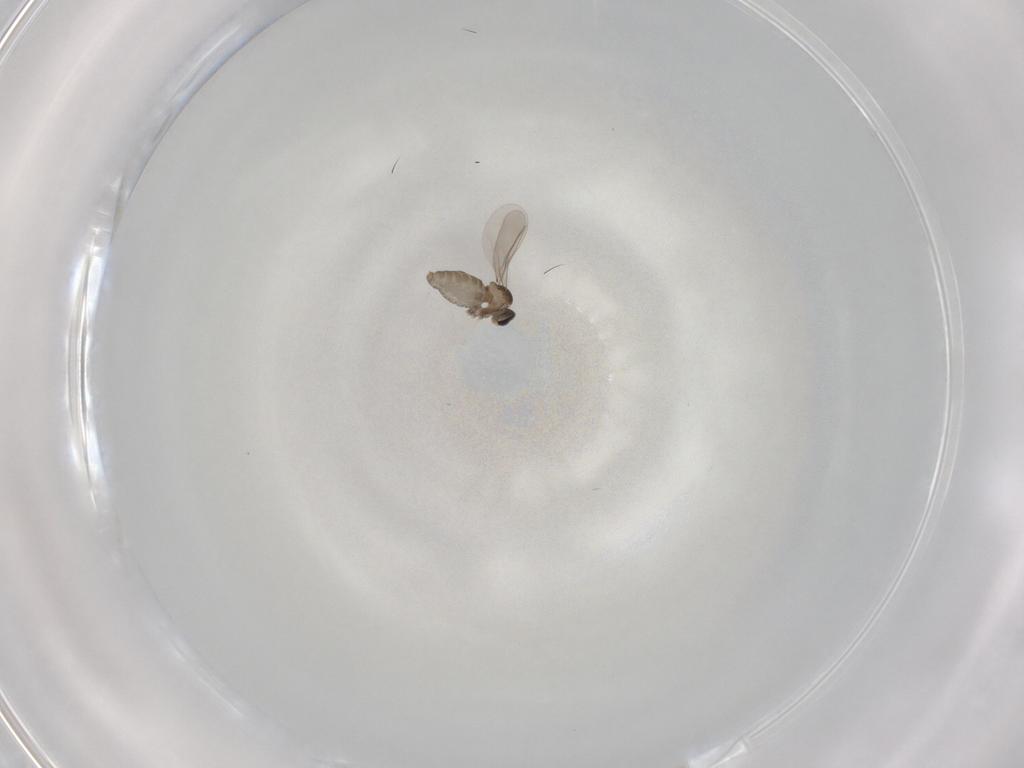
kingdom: Animalia
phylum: Arthropoda
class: Insecta
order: Diptera
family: Cecidomyiidae
